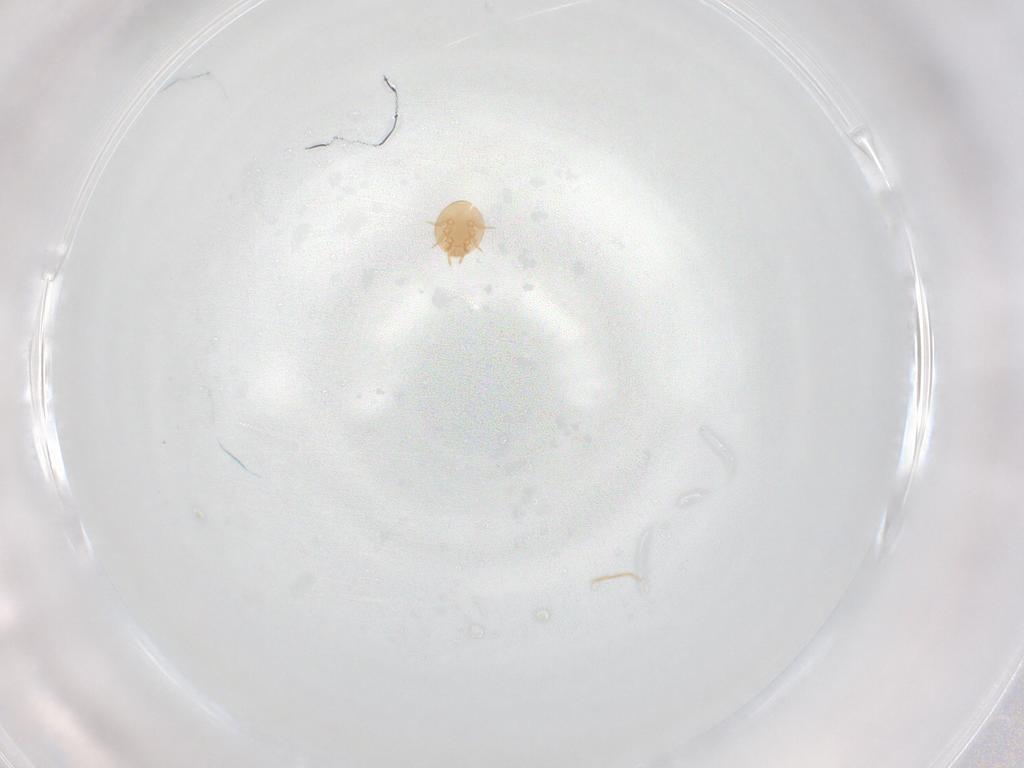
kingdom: Animalia
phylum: Arthropoda
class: Arachnida
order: Mesostigmata
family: Trematuridae
